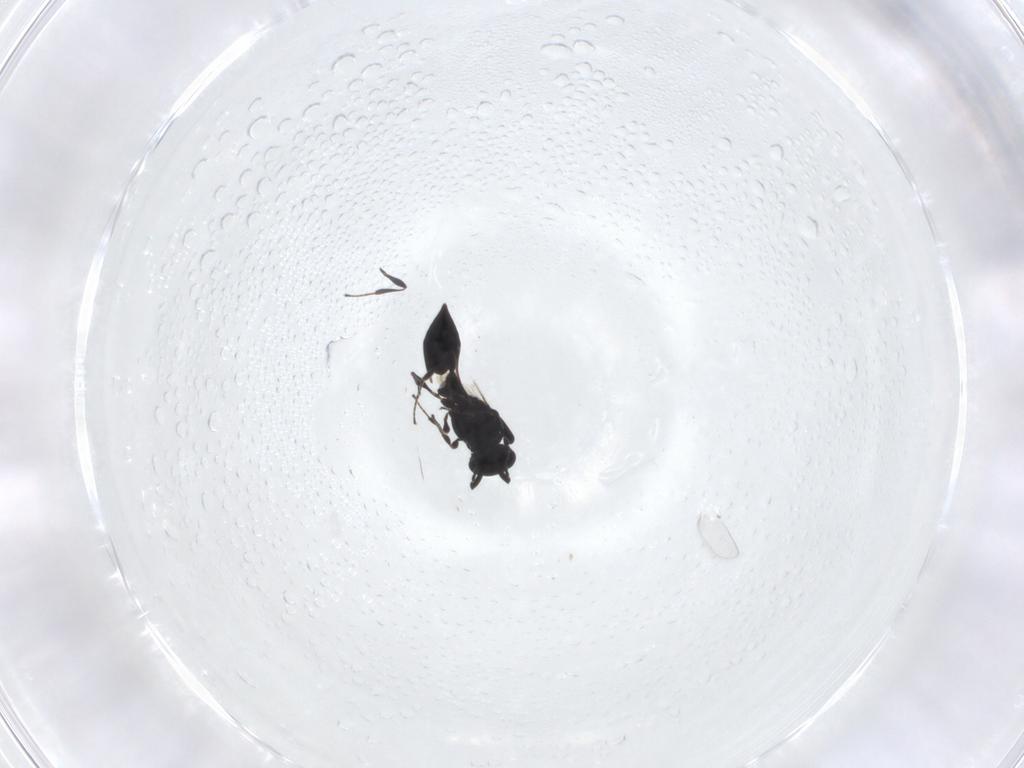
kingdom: Animalia
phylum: Arthropoda
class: Insecta
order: Hymenoptera
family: Platygastridae
